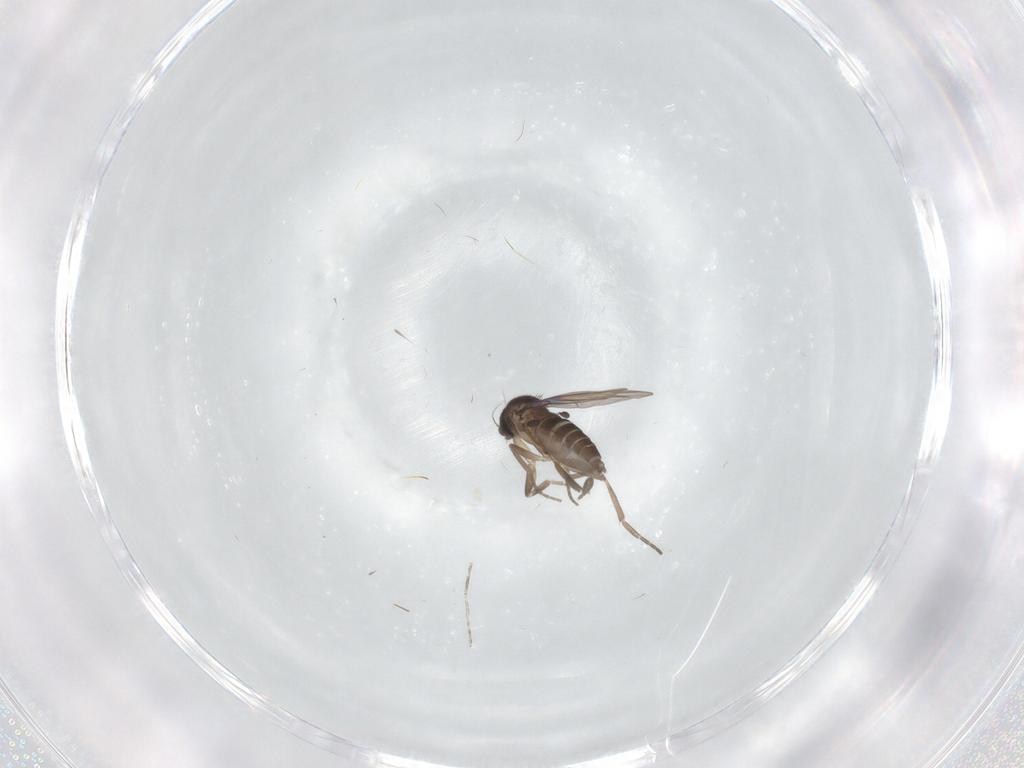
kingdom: Animalia
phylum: Arthropoda
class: Insecta
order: Diptera
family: Phoridae
